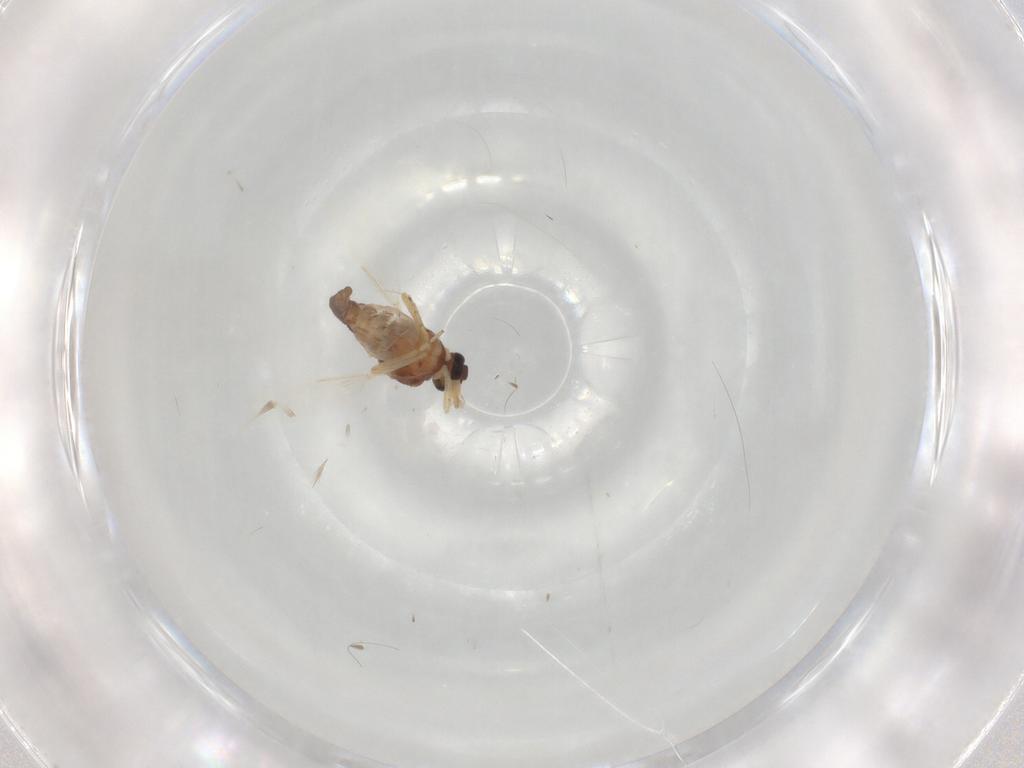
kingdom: Animalia
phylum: Arthropoda
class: Insecta
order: Diptera
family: Ceratopogonidae
